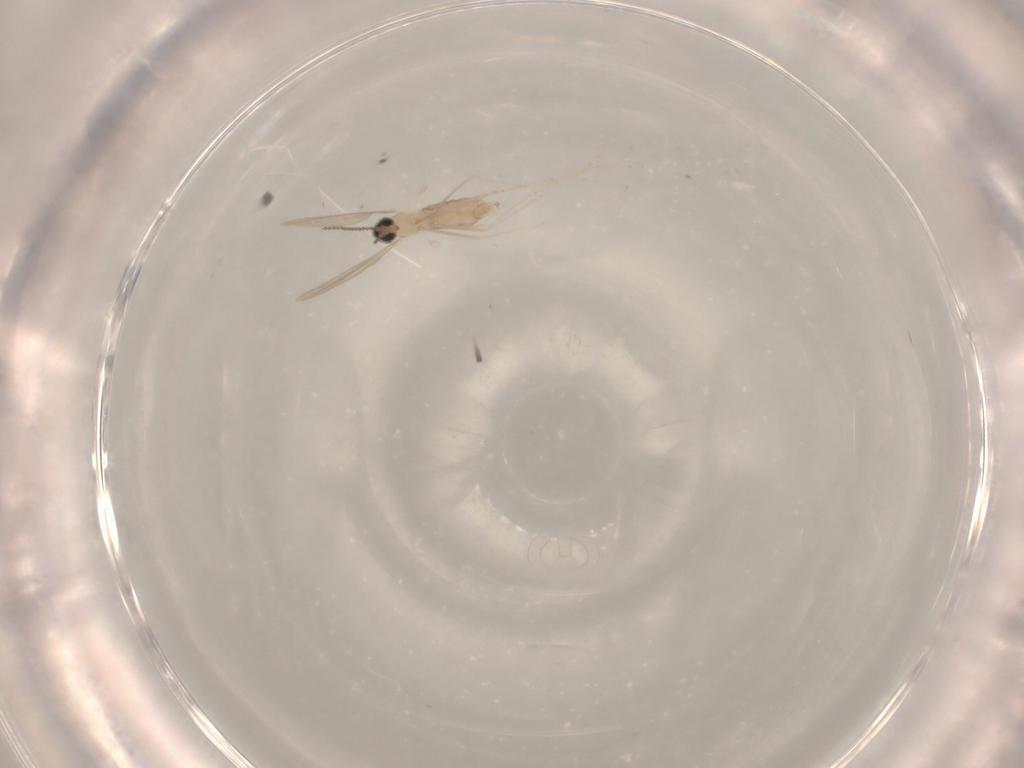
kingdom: Animalia
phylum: Arthropoda
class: Insecta
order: Diptera
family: Cecidomyiidae
